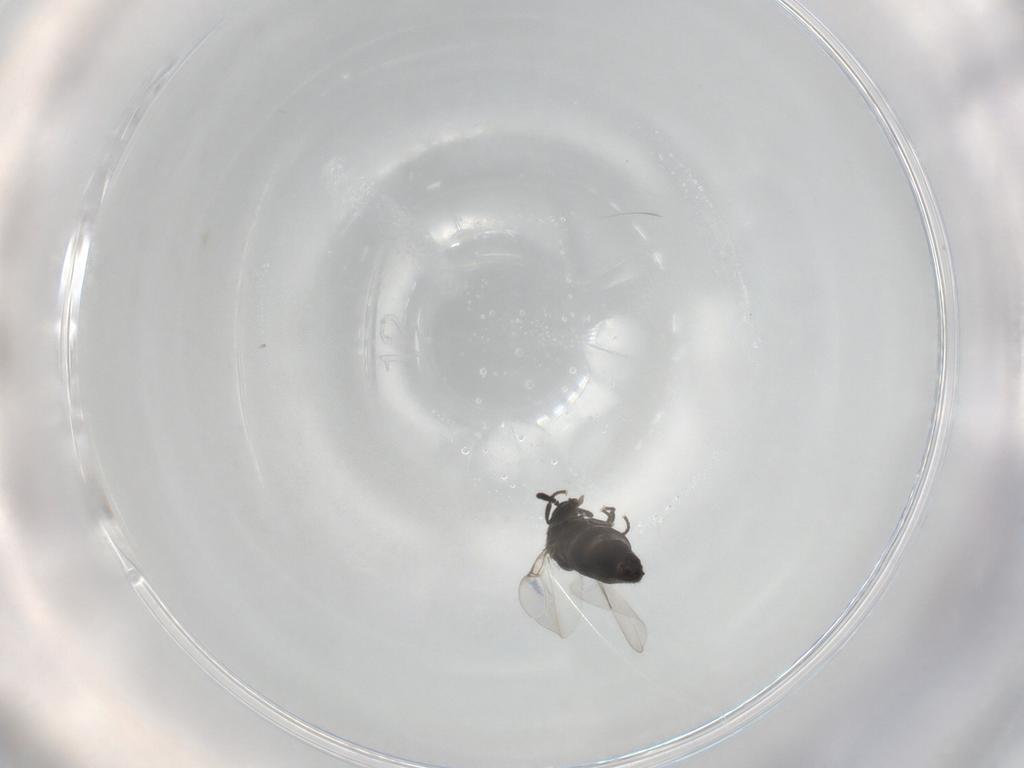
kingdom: Animalia
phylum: Arthropoda
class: Insecta
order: Diptera
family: Scatopsidae
